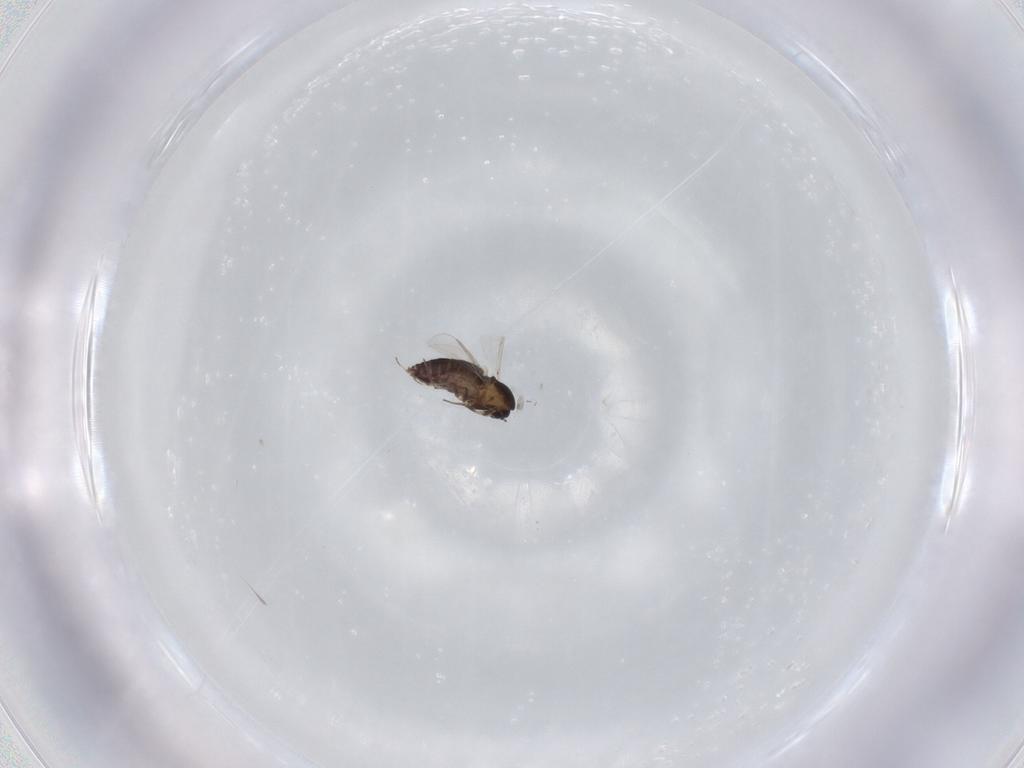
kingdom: Animalia
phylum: Arthropoda
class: Insecta
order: Diptera
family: Chironomidae
